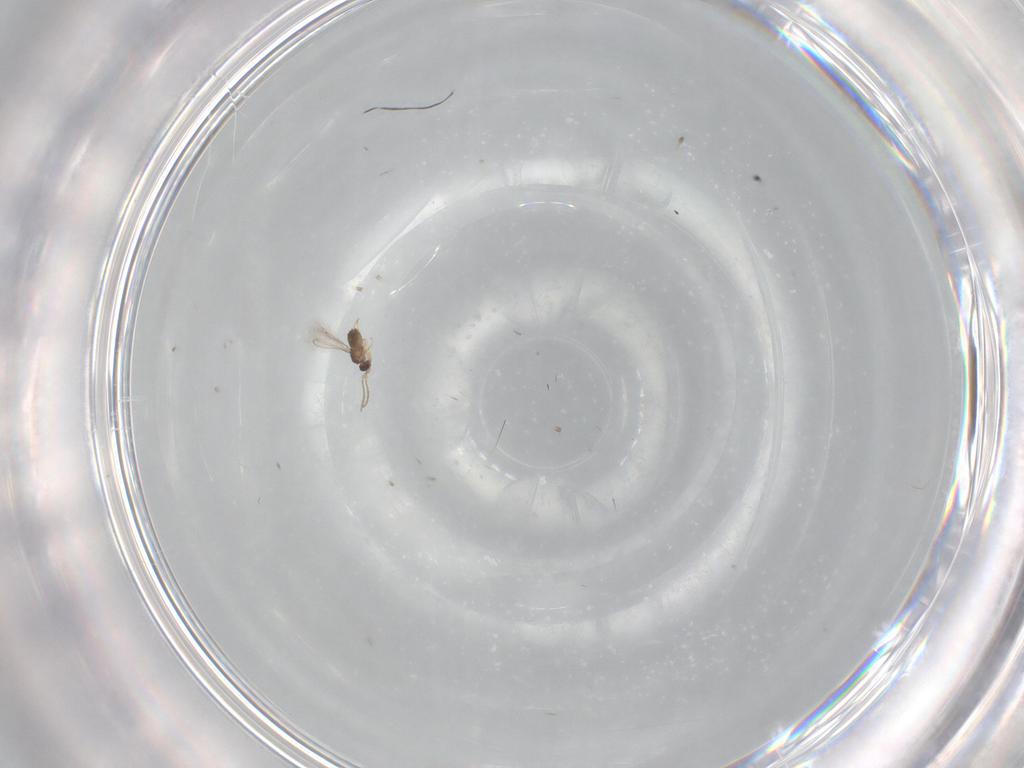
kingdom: Animalia
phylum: Arthropoda
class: Insecta
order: Hymenoptera
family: Mymaridae
